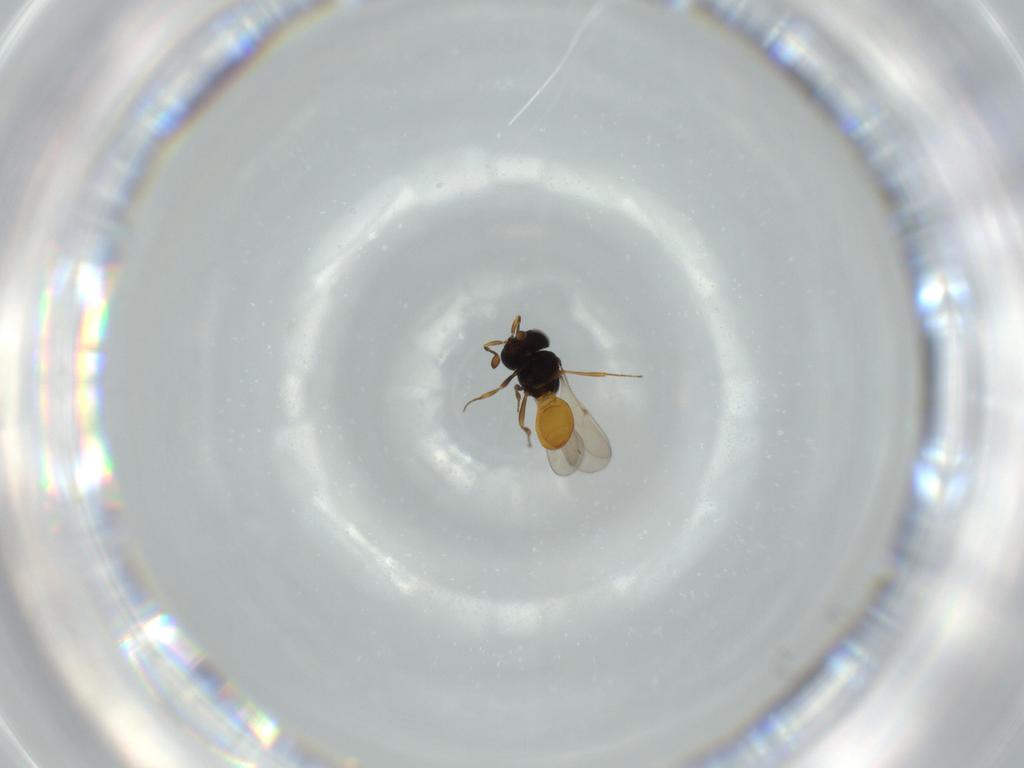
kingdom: Animalia
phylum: Arthropoda
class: Insecta
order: Hymenoptera
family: Scelionidae
